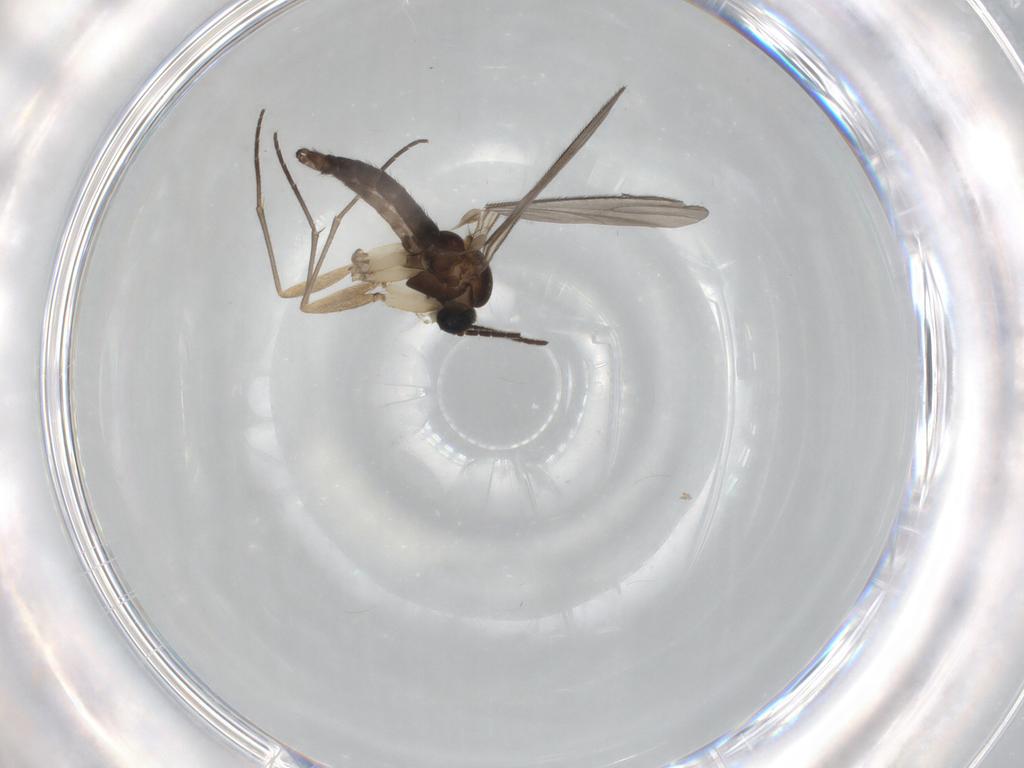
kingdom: Animalia
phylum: Arthropoda
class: Insecta
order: Diptera
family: Sciaridae
